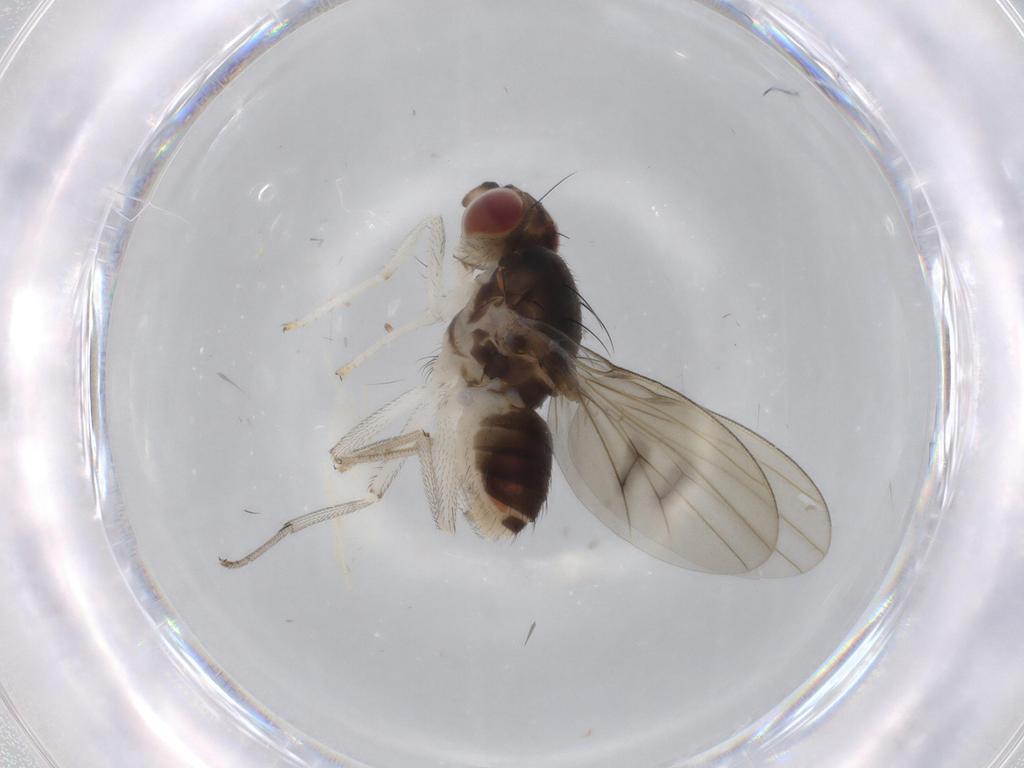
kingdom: Animalia
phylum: Arthropoda
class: Insecta
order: Diptera
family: Lauxaniidae
